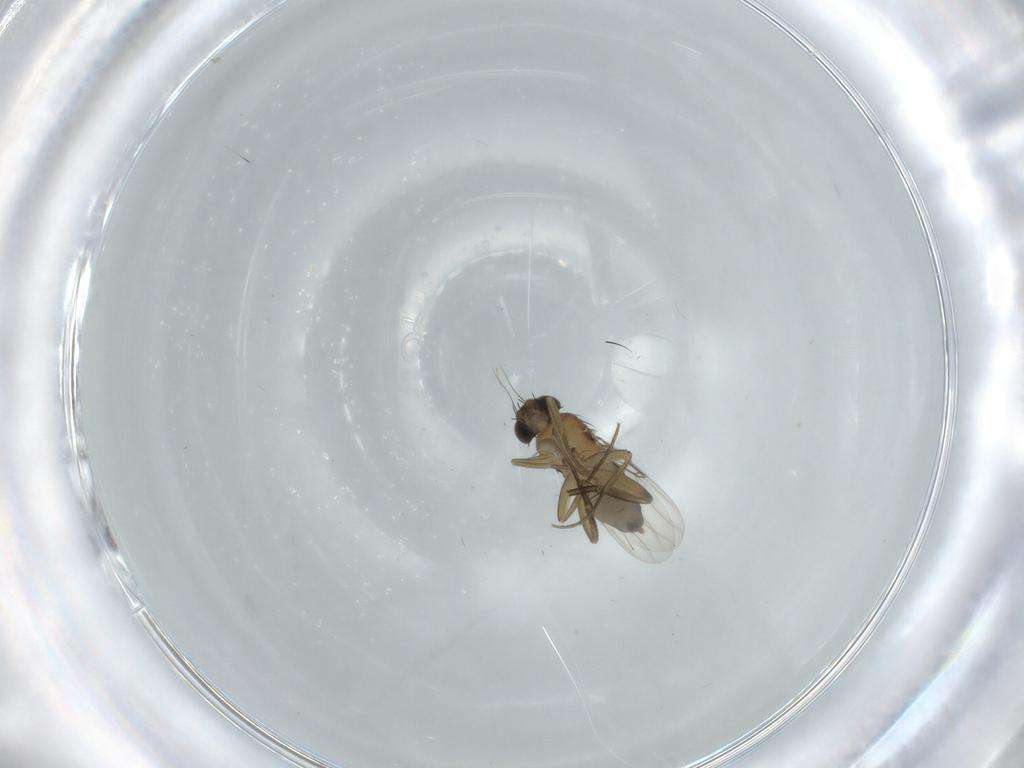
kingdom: Animalia
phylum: Arthropoda
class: Insecta
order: Diptera
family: Phoridae
